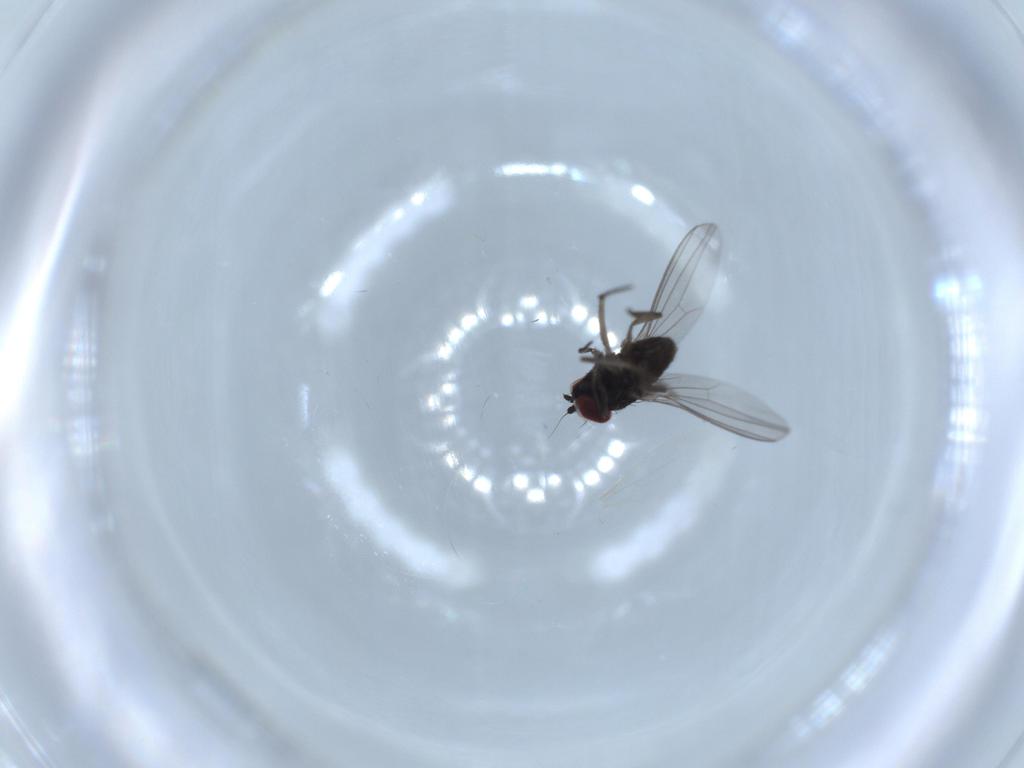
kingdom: Animalia
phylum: Arthropoda
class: Insecta
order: Diptera
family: Dolichopodidae
